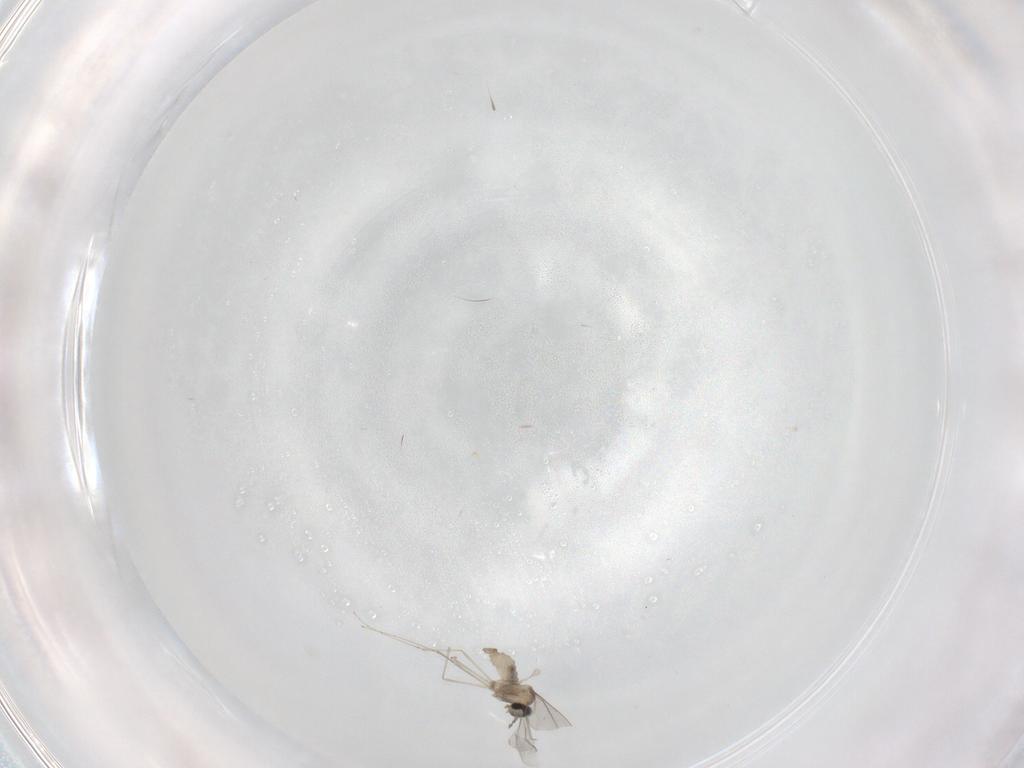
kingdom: Animalia
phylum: Arthropoda
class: Insecta
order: Diptera
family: Cecidomyiidae
